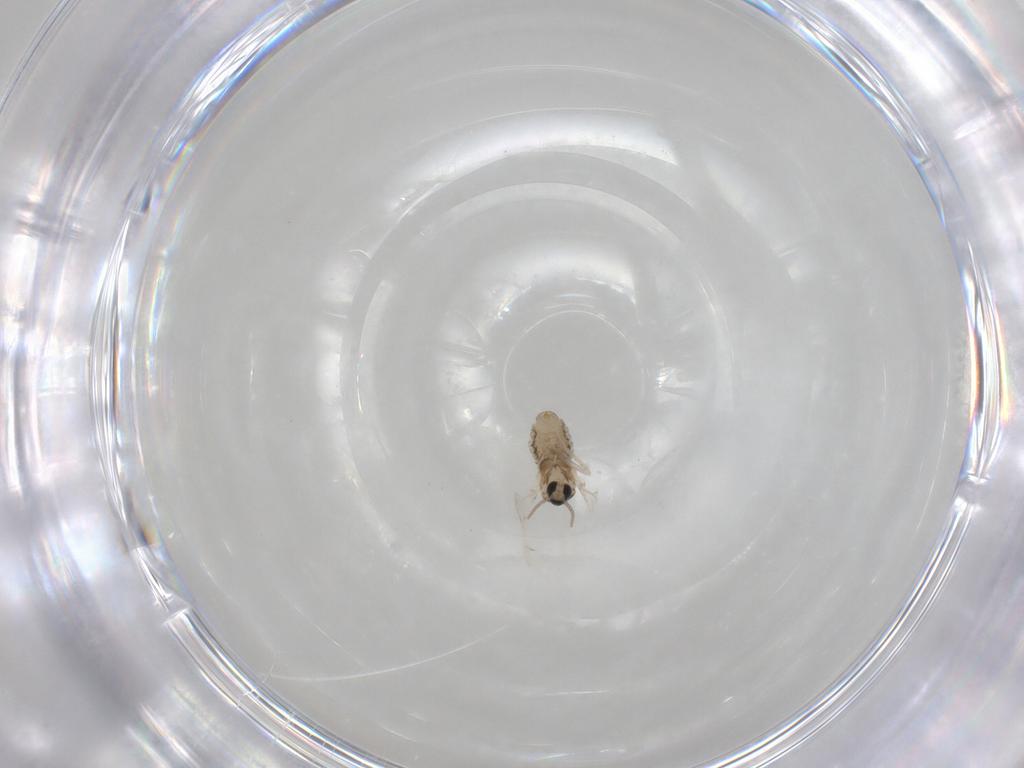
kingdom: Animalia
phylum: Arthropoda
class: Insecta
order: Diptera
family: Cecidomyiidae
